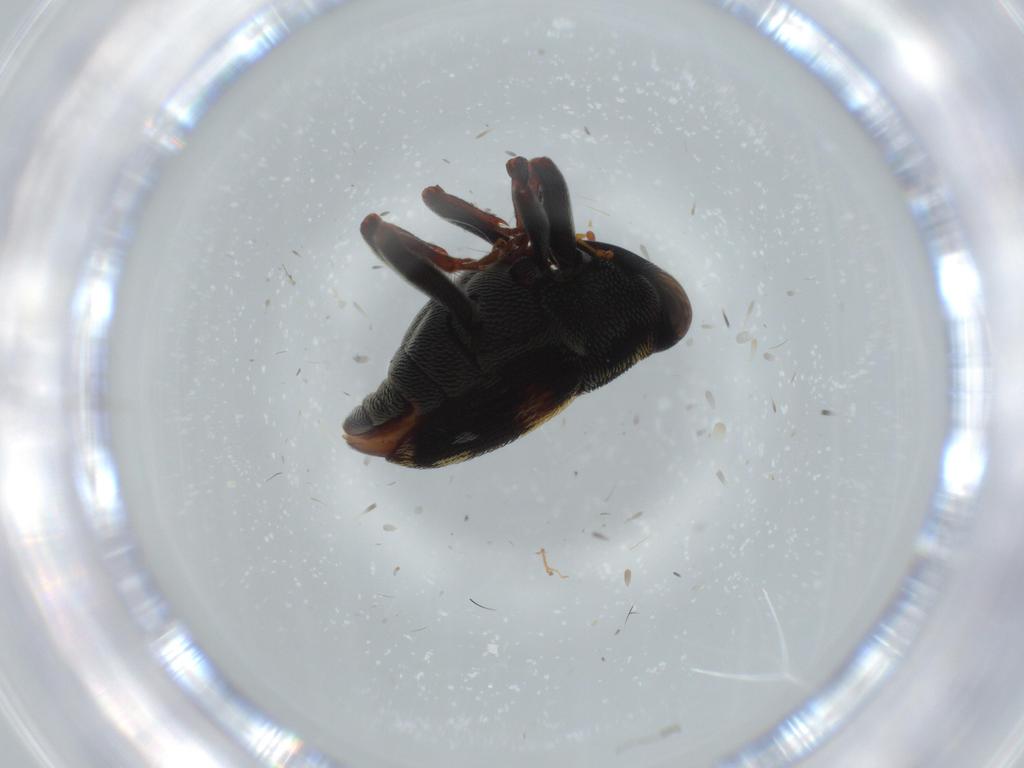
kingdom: Animalia
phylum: Arthropoda
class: Insecta
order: Coleoptera
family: Curculionidae
